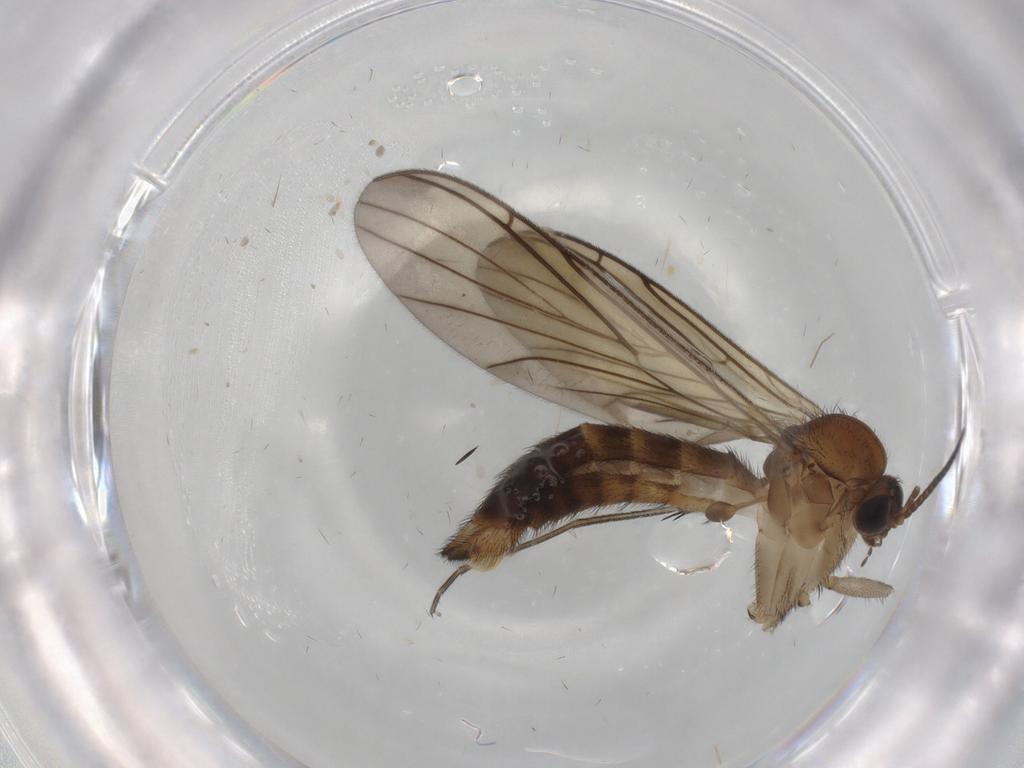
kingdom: Animalia
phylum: Arthropoda
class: Insecta
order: Diptera
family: Keroplatidae
